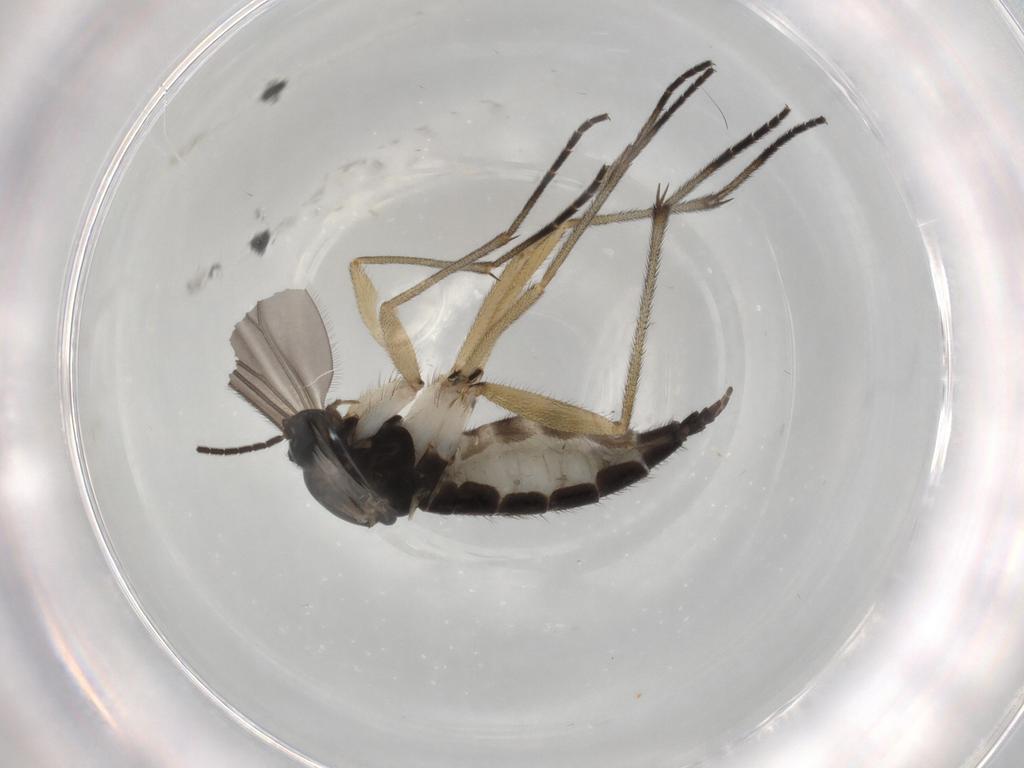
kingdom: Animalia
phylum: Arthropoda
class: Insecta
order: Diptera
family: Sciaridae
